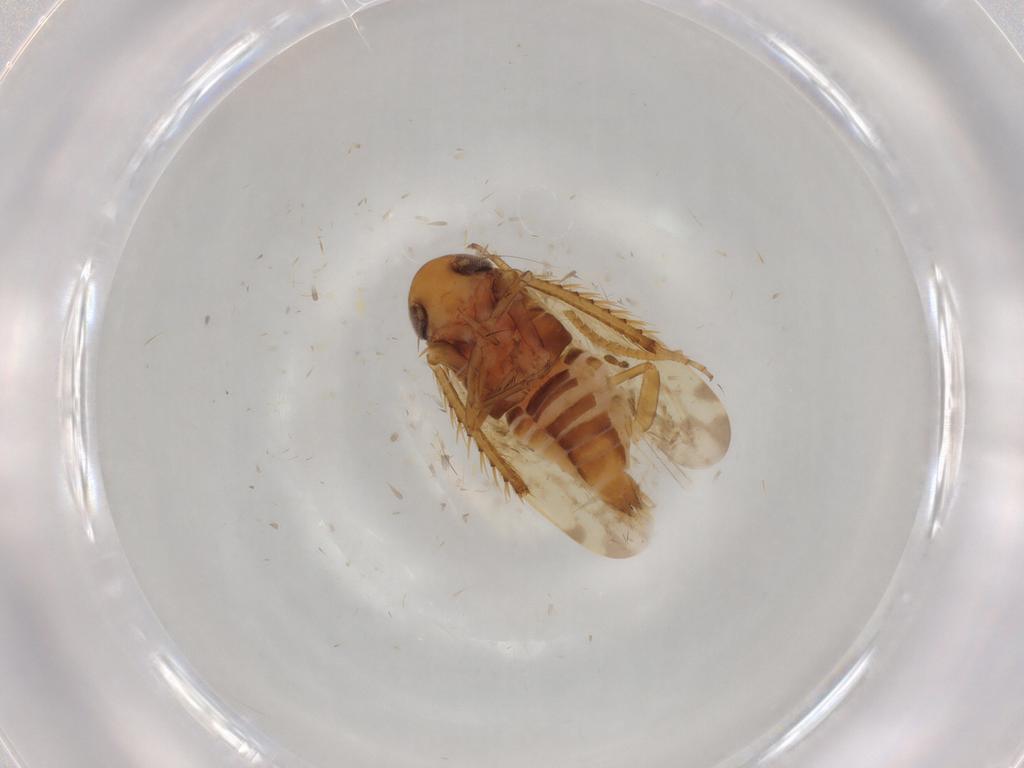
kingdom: Animalia
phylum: Arthropoda
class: Insecta
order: Hemiptera
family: Cicadellidae
